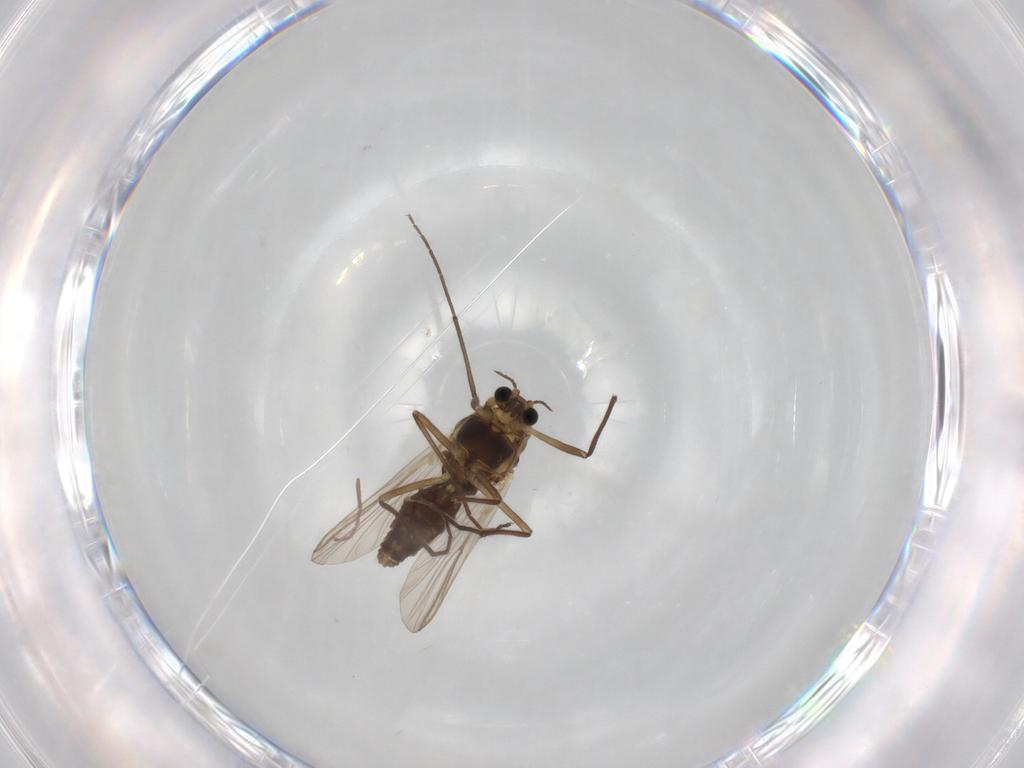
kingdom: Animalia
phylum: Arthropoda
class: Insecta
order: Diptera
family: Chironomidae
